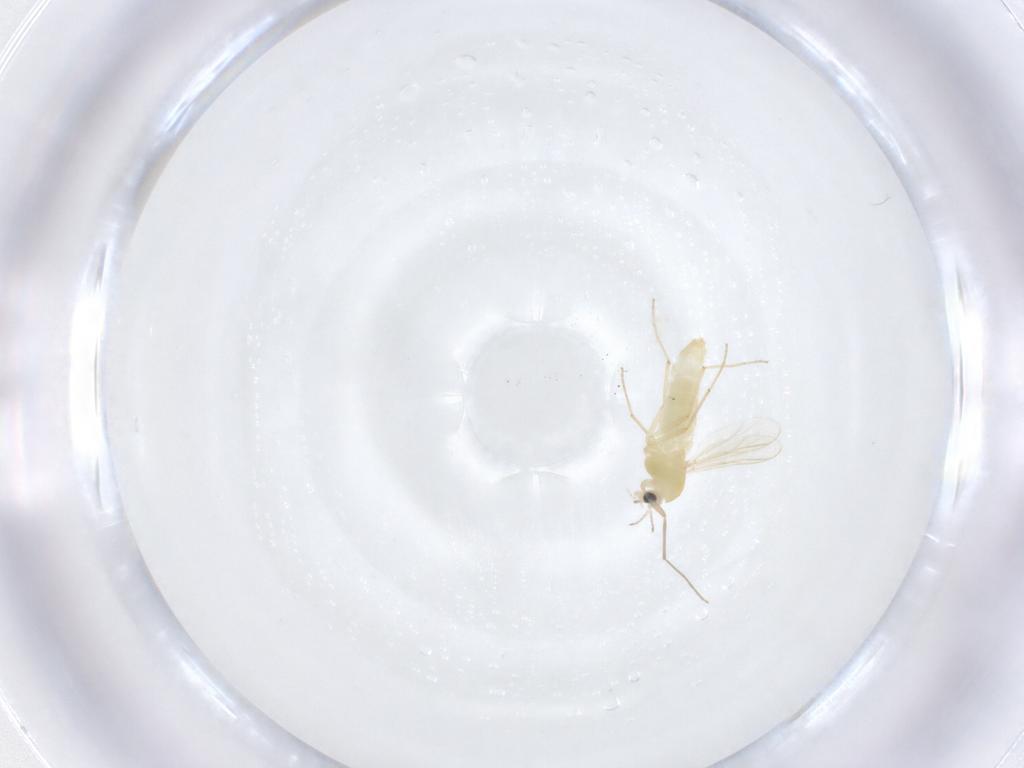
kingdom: Animalia
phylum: Arthropoda
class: Insecta
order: Diptera
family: Chironomidae
